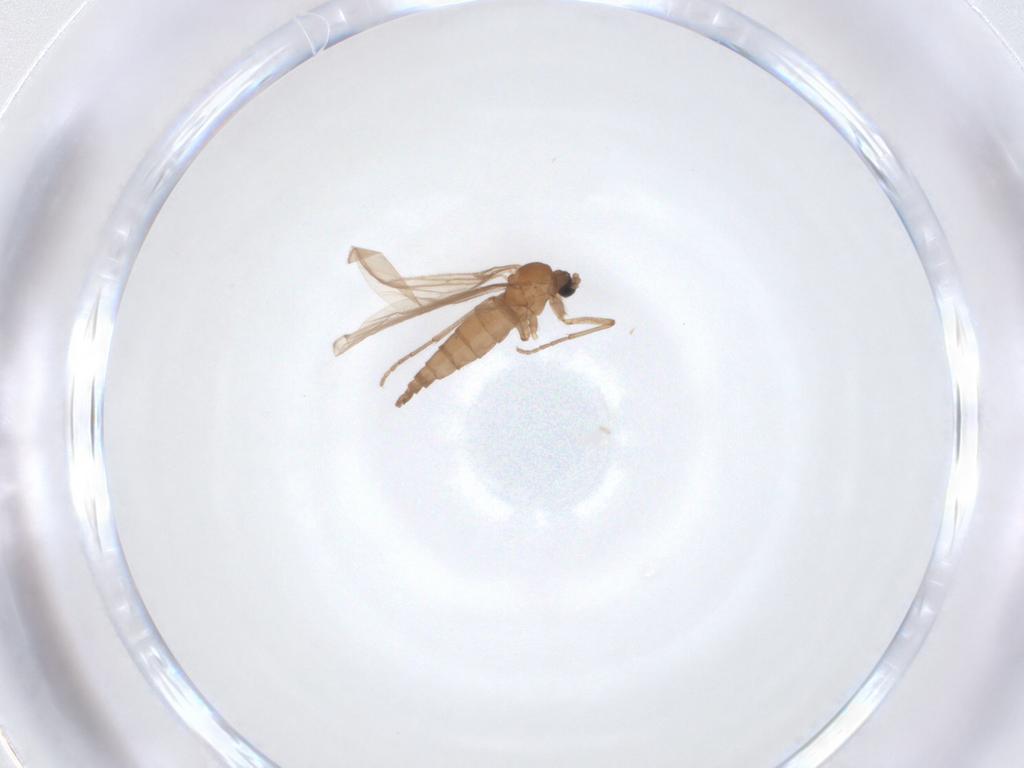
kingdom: Animalia
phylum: Arthropoda
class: Insecta
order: Diptera
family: Sciaridae
